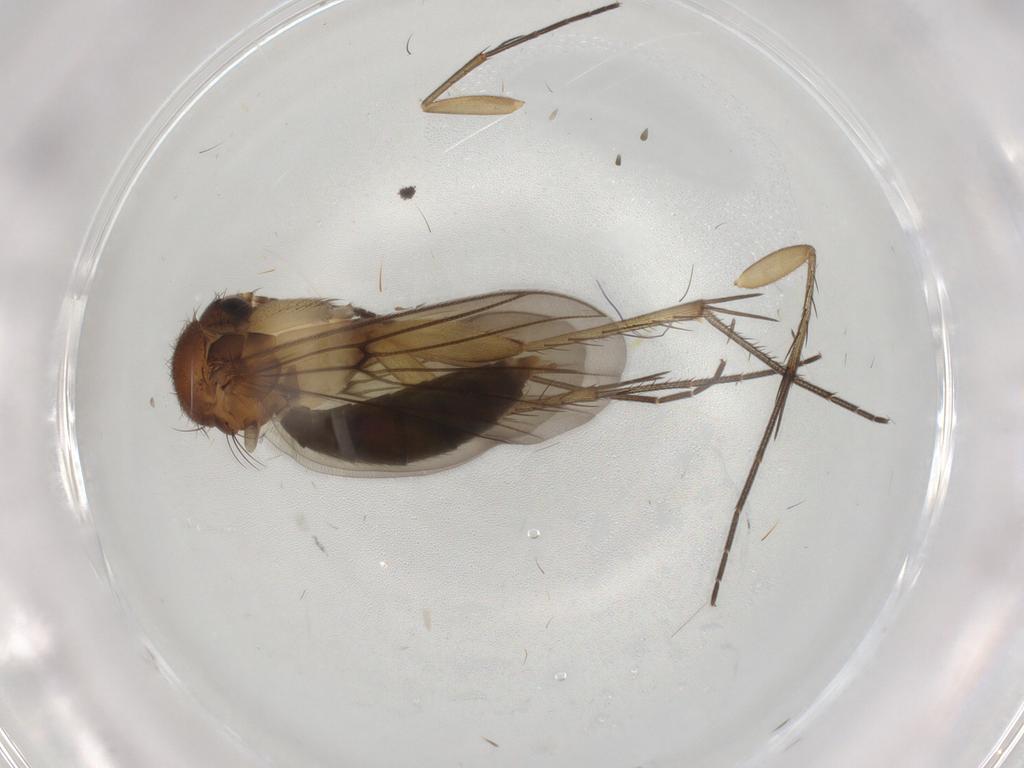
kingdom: Animalia
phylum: Arthropoda
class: Insecta
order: Diptera
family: Mycetophilidae
